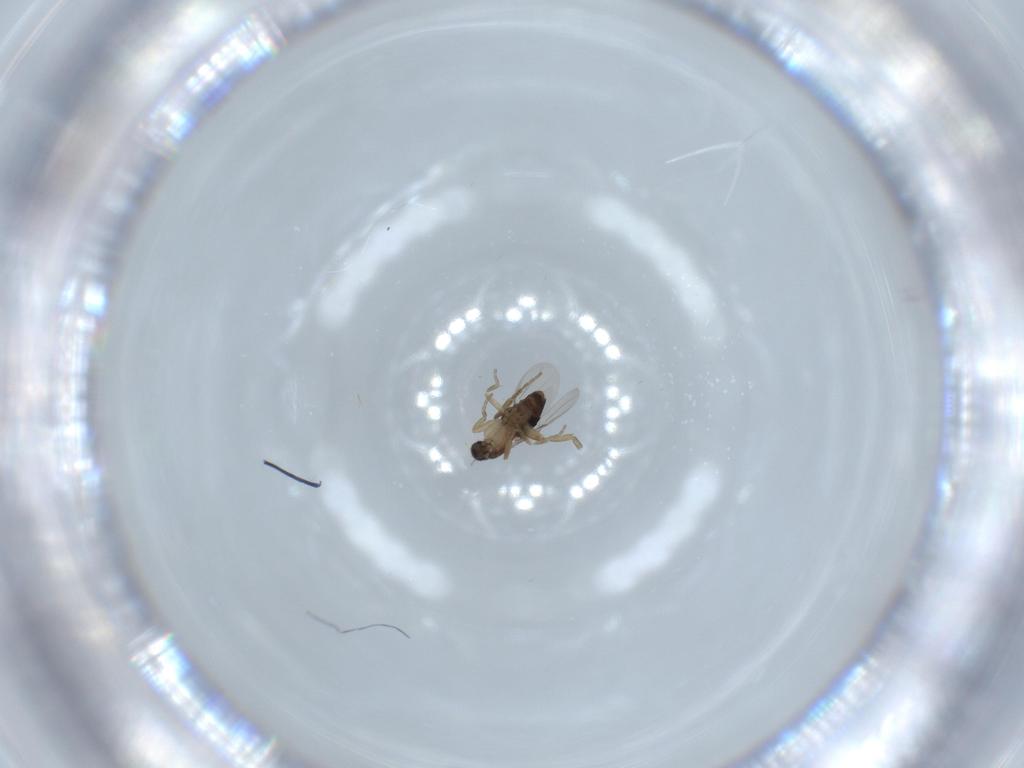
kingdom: Animalia
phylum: Arthropoda
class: Insecta
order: Diptera
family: Phoridae
